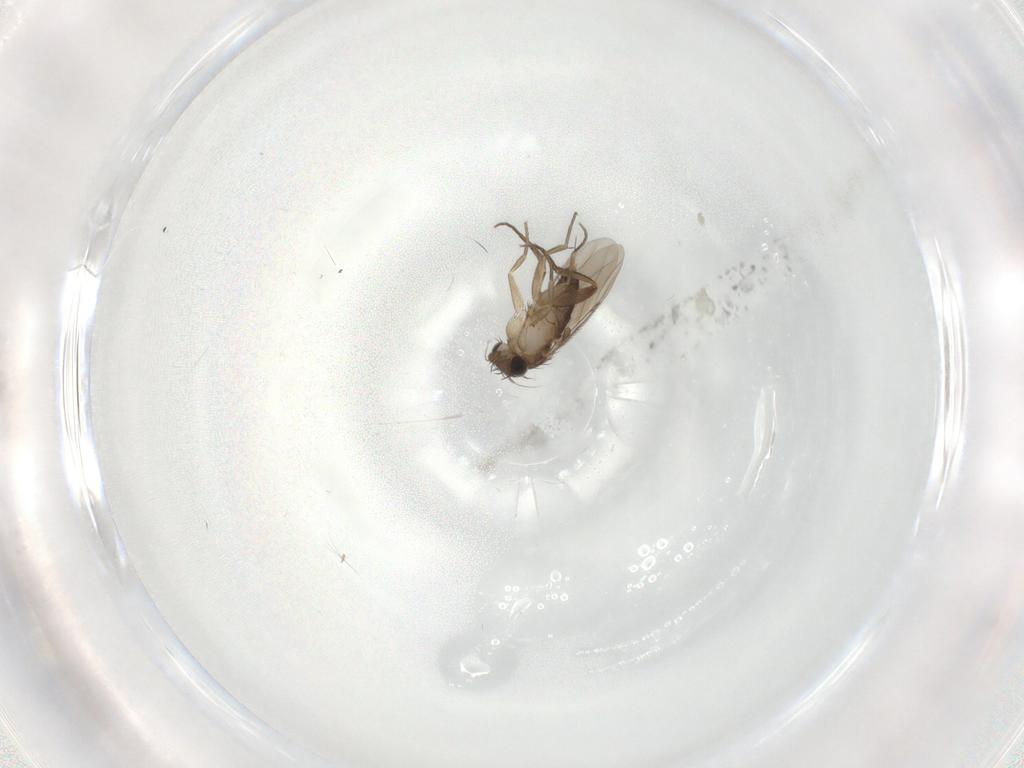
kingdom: Animalia
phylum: Arthropoda
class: Insecta
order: Diptera
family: Phoridae
